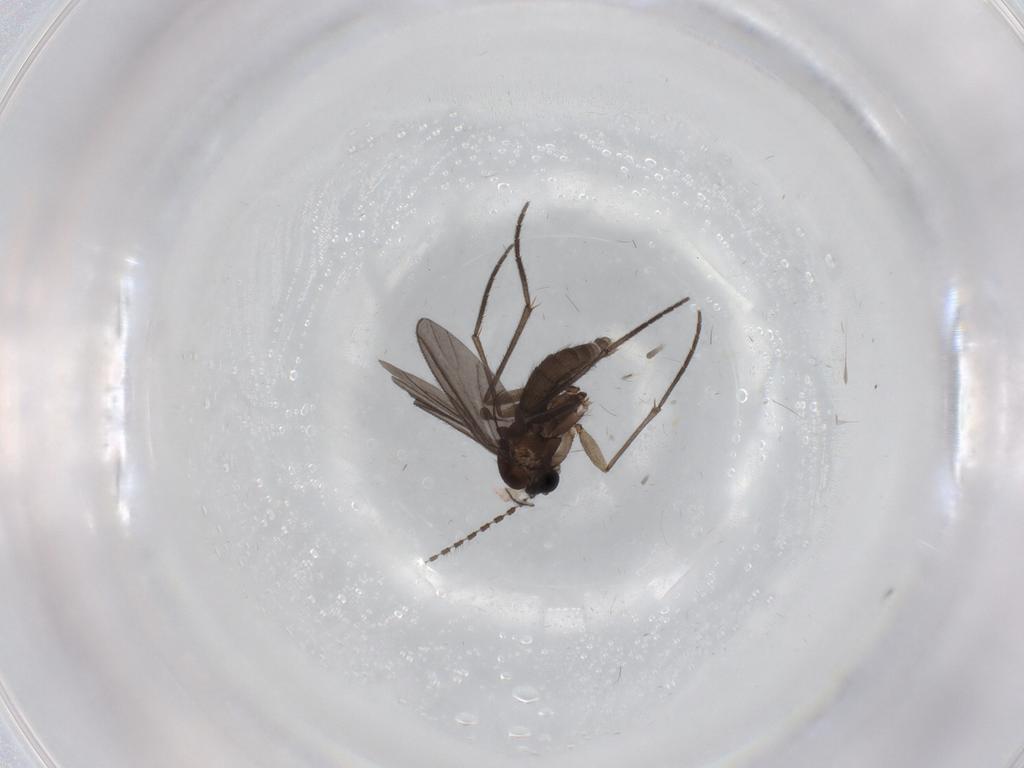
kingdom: Animalia
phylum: Arthropoda
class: Insecta
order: Diptera
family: Sciaridae
